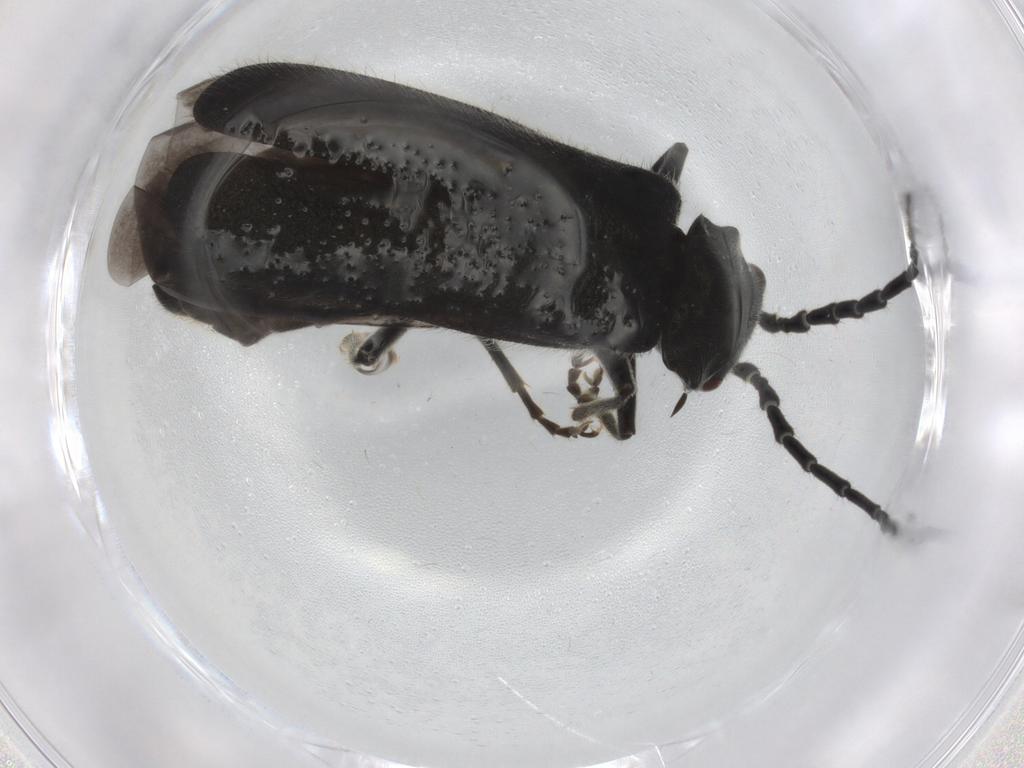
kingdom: Animalia
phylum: Arthropoda
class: Insecta
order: Coleoptera
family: Cantharidae
